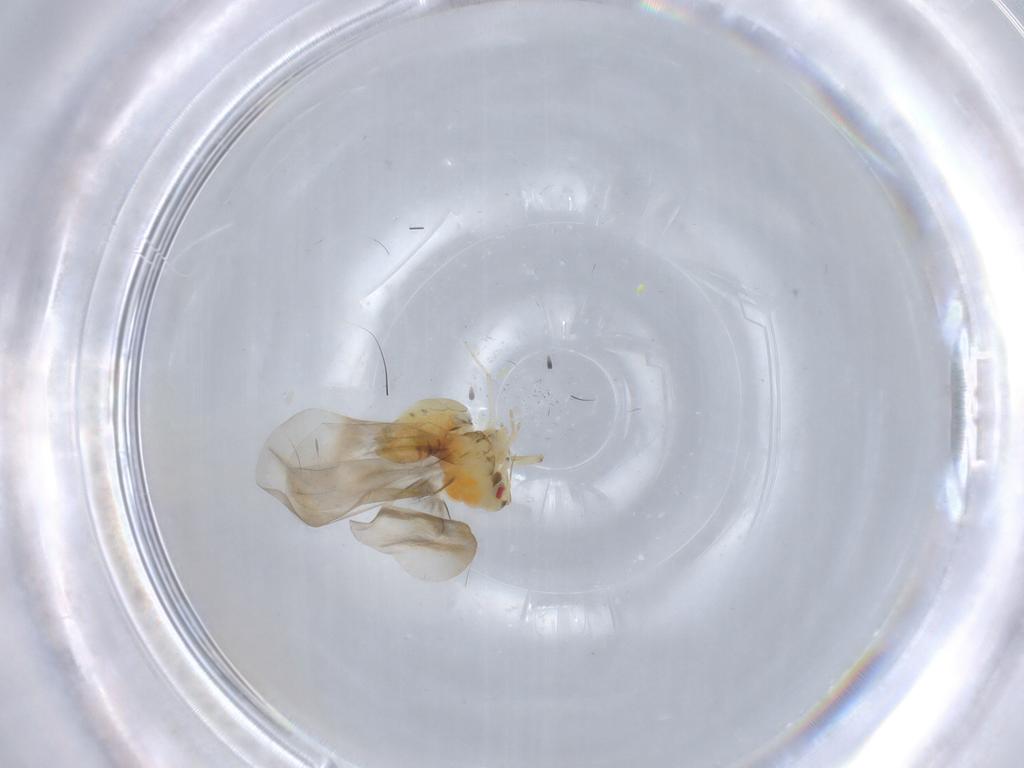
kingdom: Animalia
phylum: Arthropoda
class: Insecta
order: Hemiptera
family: Aleyrodidae
